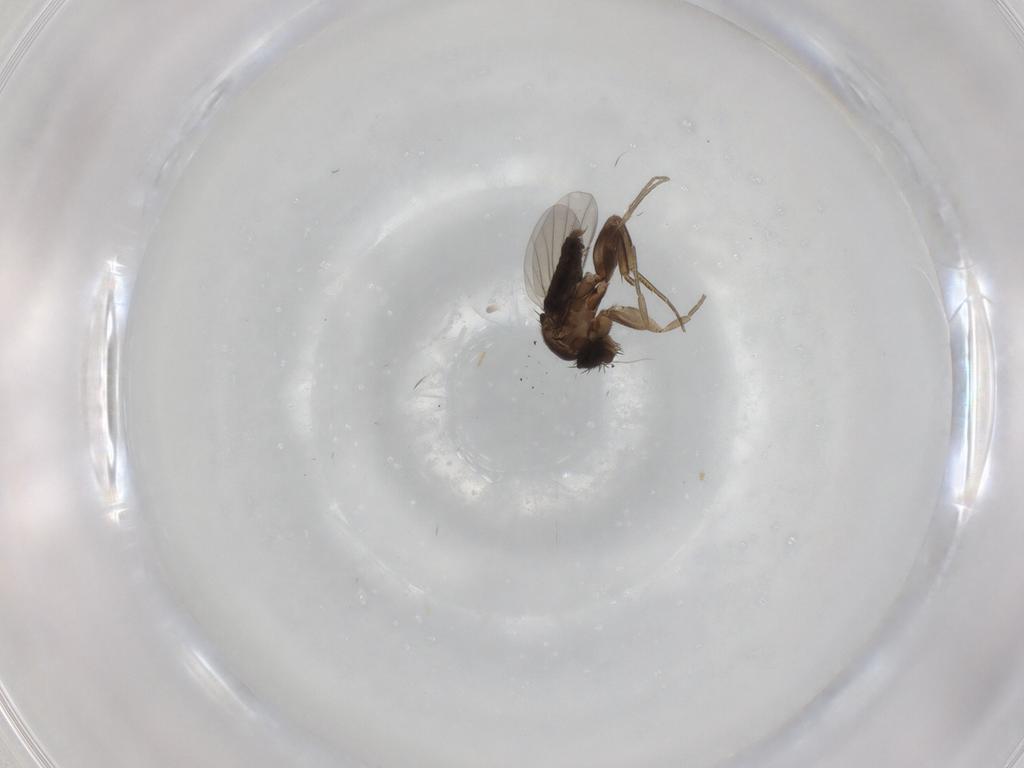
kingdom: Animalia
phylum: Arthropoda
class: Insecta
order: Diptera
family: Phoridae
